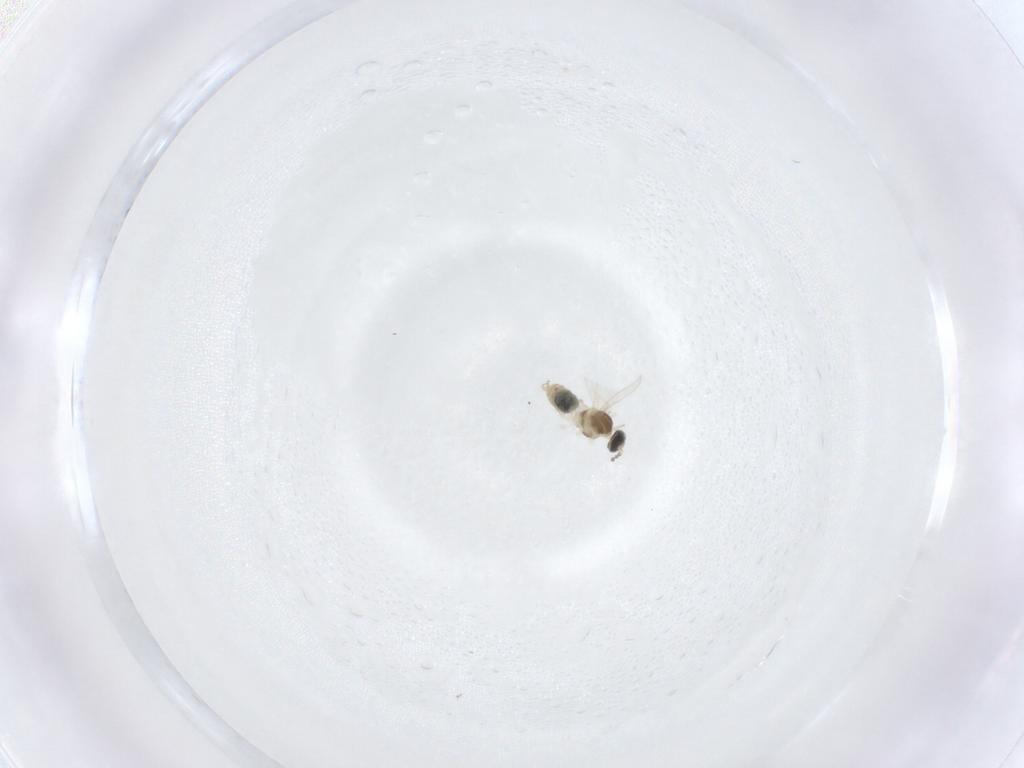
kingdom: Animalia
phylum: Arthropoda
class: Insecta
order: Diptera
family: Cecidomyiidae
